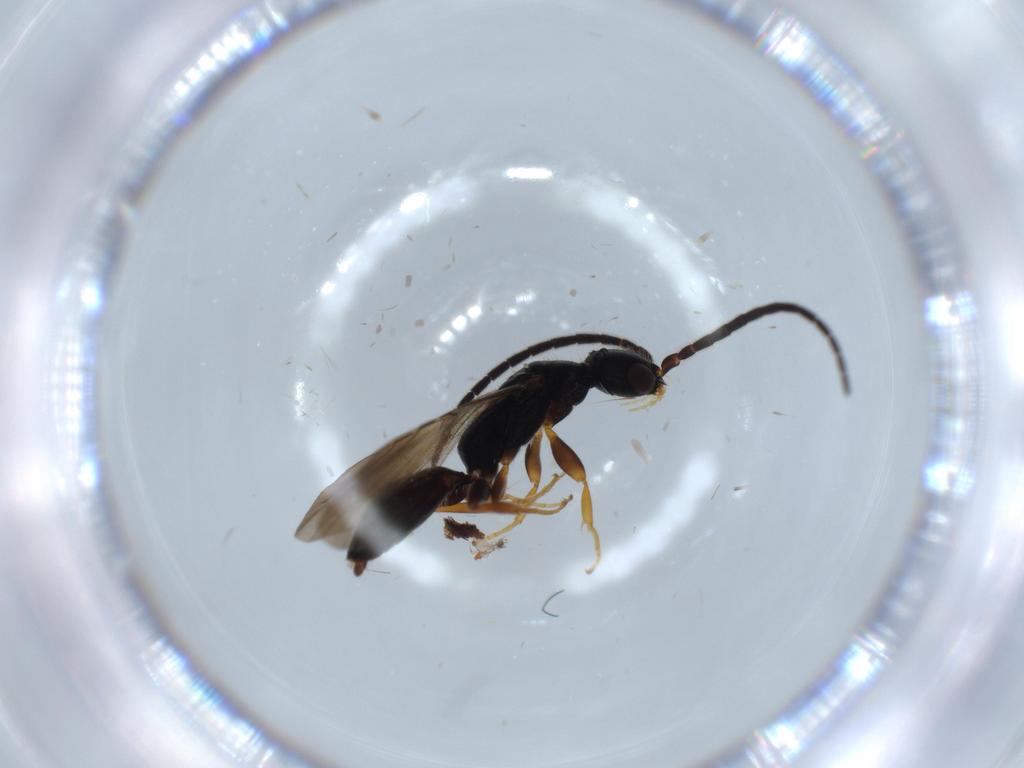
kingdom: Animalia
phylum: Arthropoda
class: Insecta
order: Hymenoptera
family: Bethylidae
